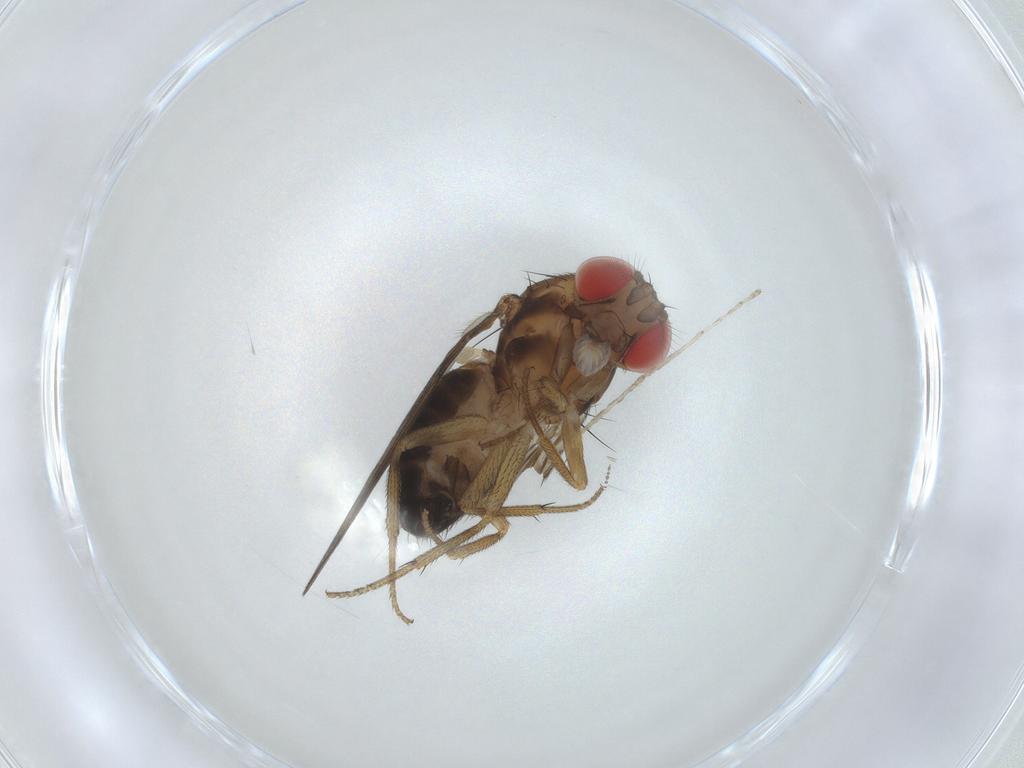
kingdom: Animalia
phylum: Arthropoda
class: Insecta
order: Diptera
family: Drosophilidae
